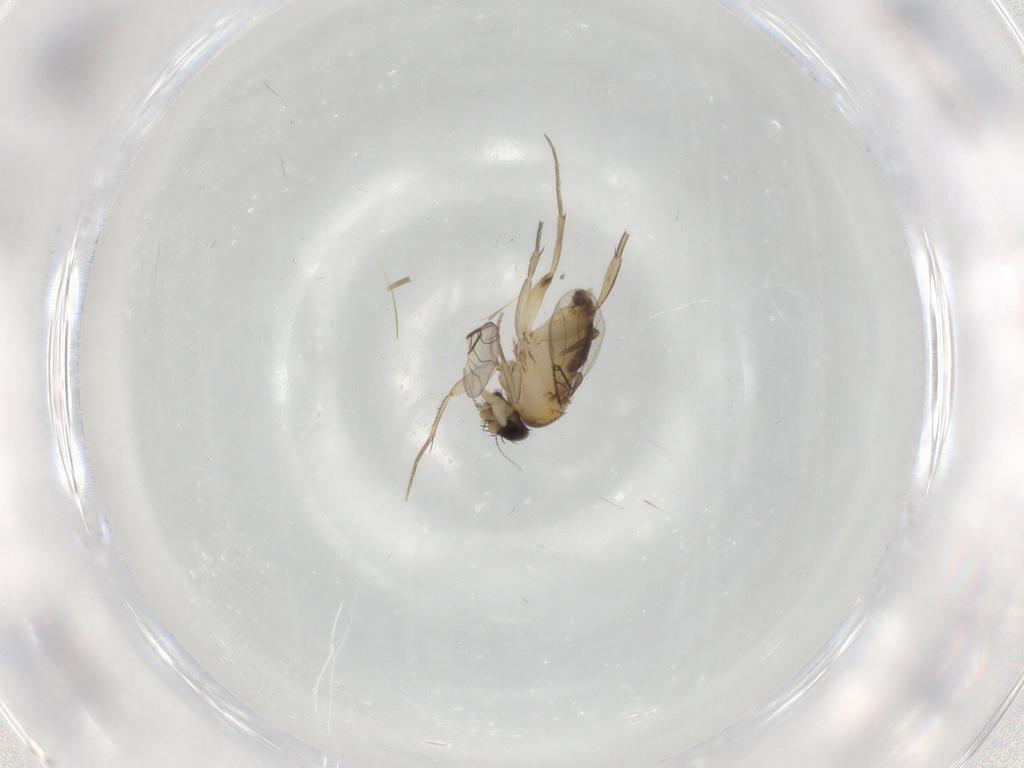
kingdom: Animalia
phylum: Arthropoda
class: Insecta
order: Diptera
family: Phoridae
